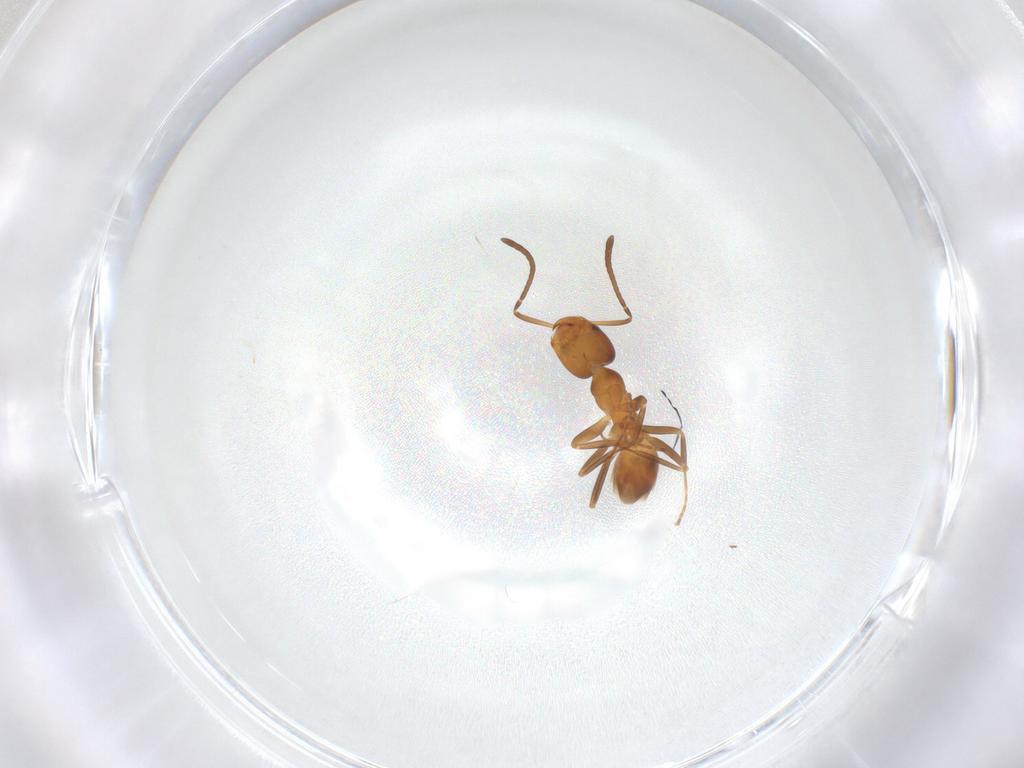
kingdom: Animalia
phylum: Arthropoda
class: Insecta
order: Hymenoptera
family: Formicidae
